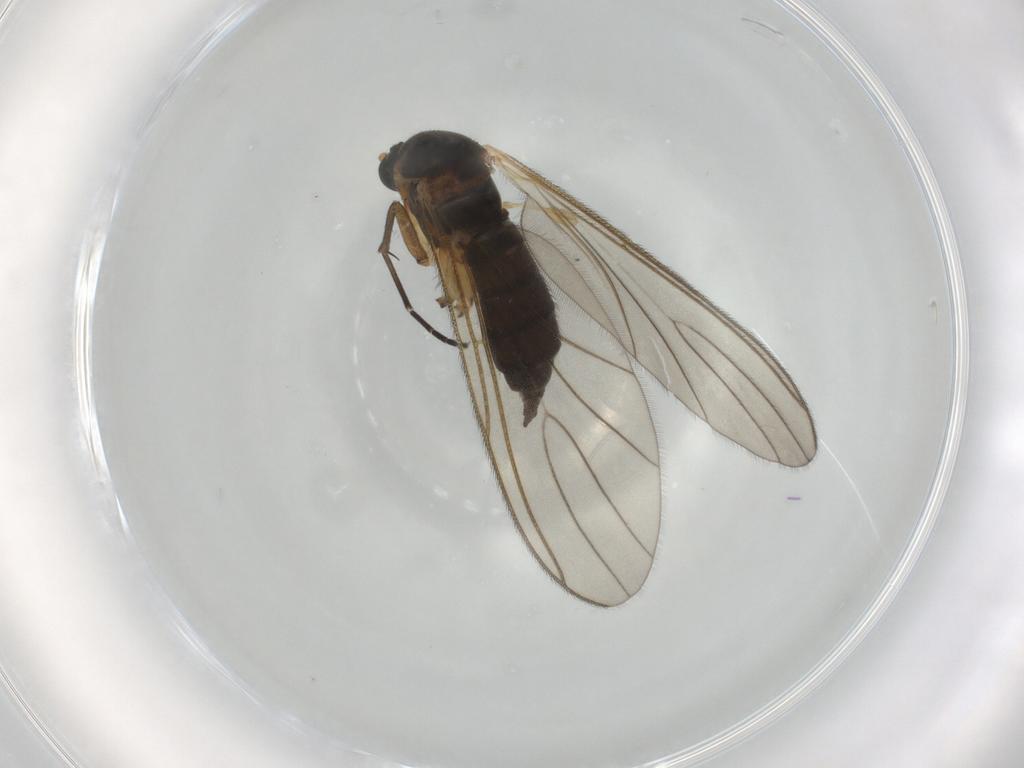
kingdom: Animalia
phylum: Arthropoda
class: Insecta
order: Diptera
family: Sciaridae
